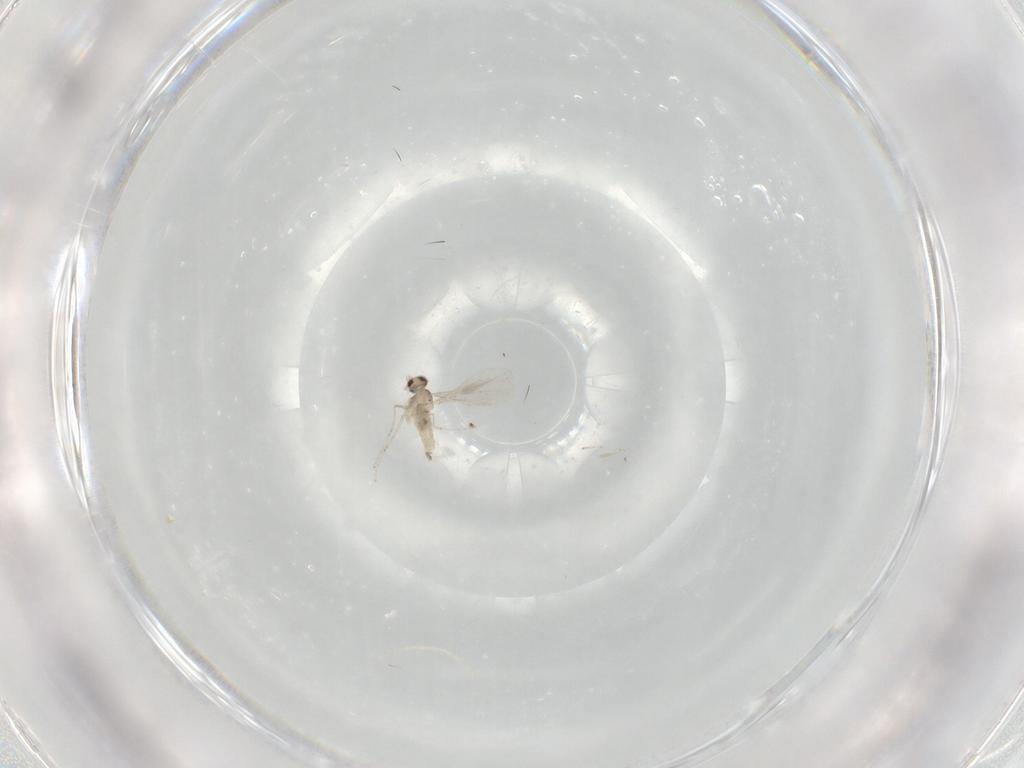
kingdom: Animalia
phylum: Arthropoda
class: Insecta
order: Diptera
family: Cecidomyiidae
